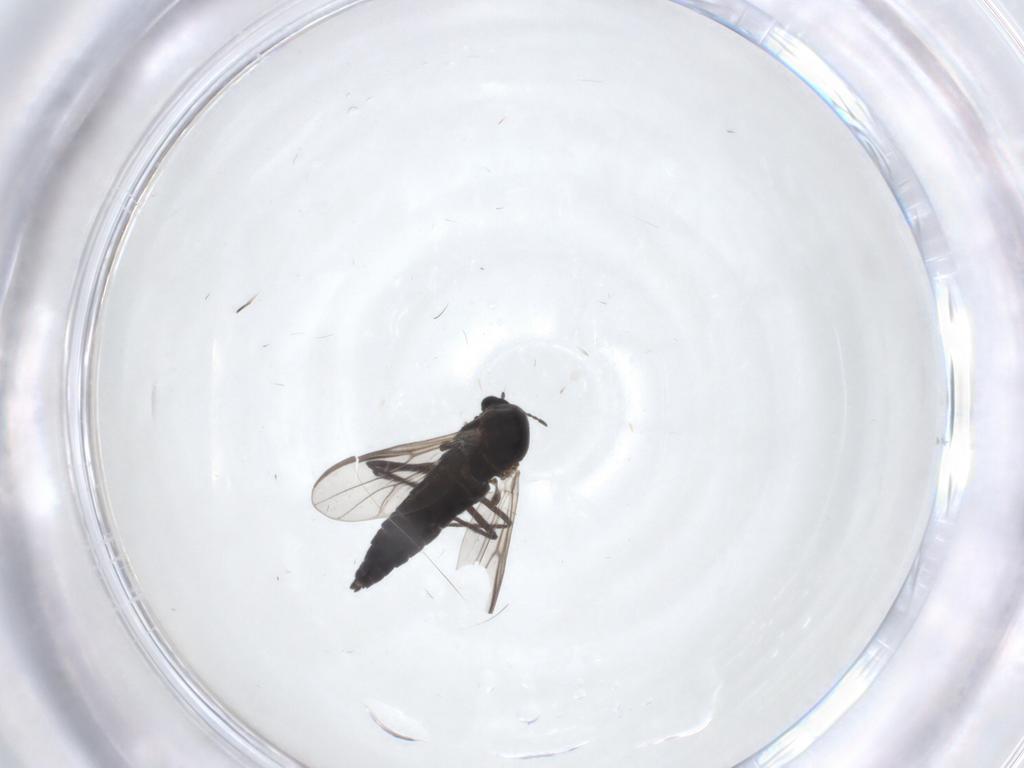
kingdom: Animalia
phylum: Arthropoda
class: Insecta
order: Diptera
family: Chironomidae
